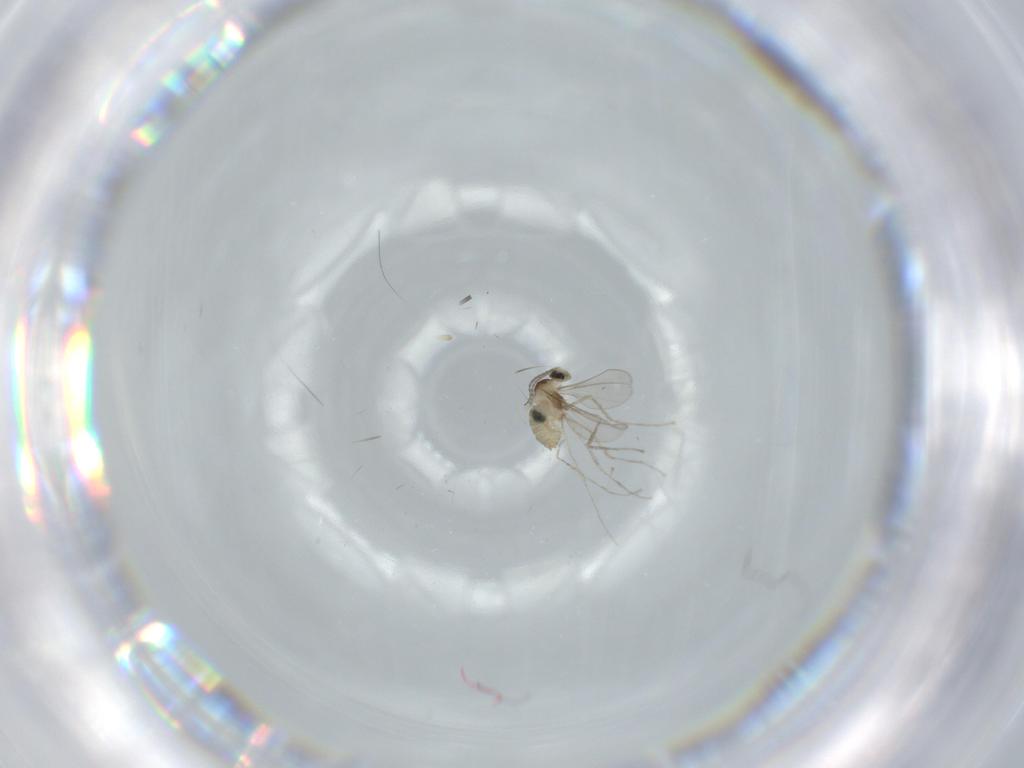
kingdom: Animalia
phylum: Arthropoda
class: Insecta
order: Diptera
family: Cecidomyiidae
